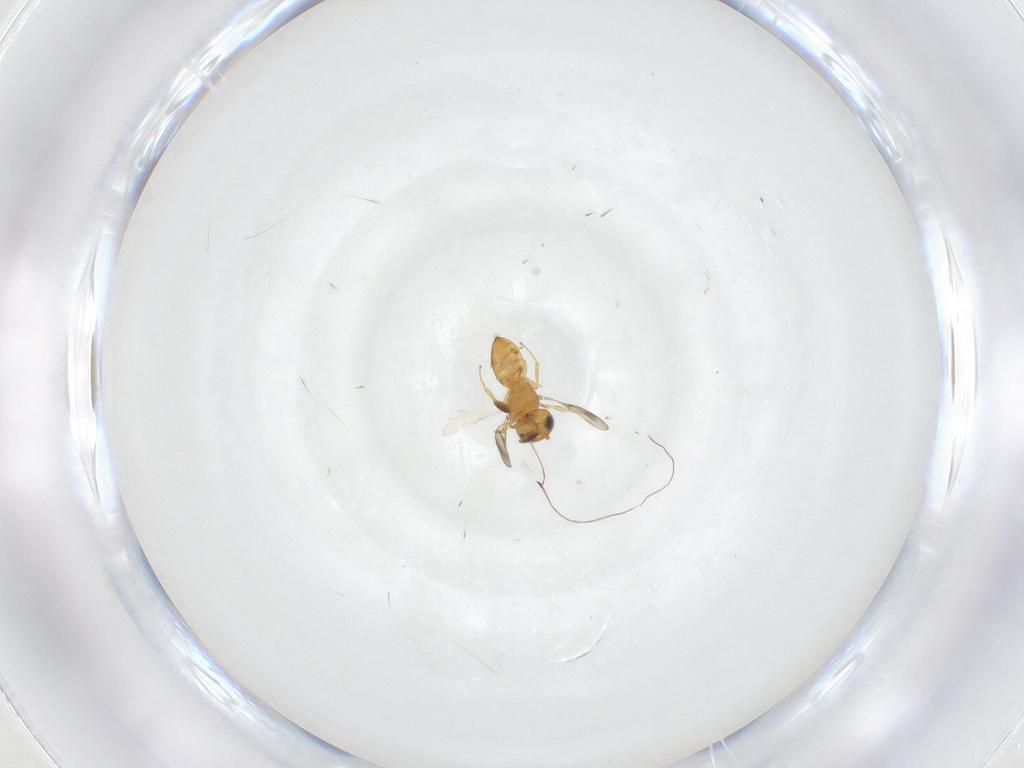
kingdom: Animalia
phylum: Arthropoda
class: Insecta
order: Hymenoptera
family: Scelionidae
